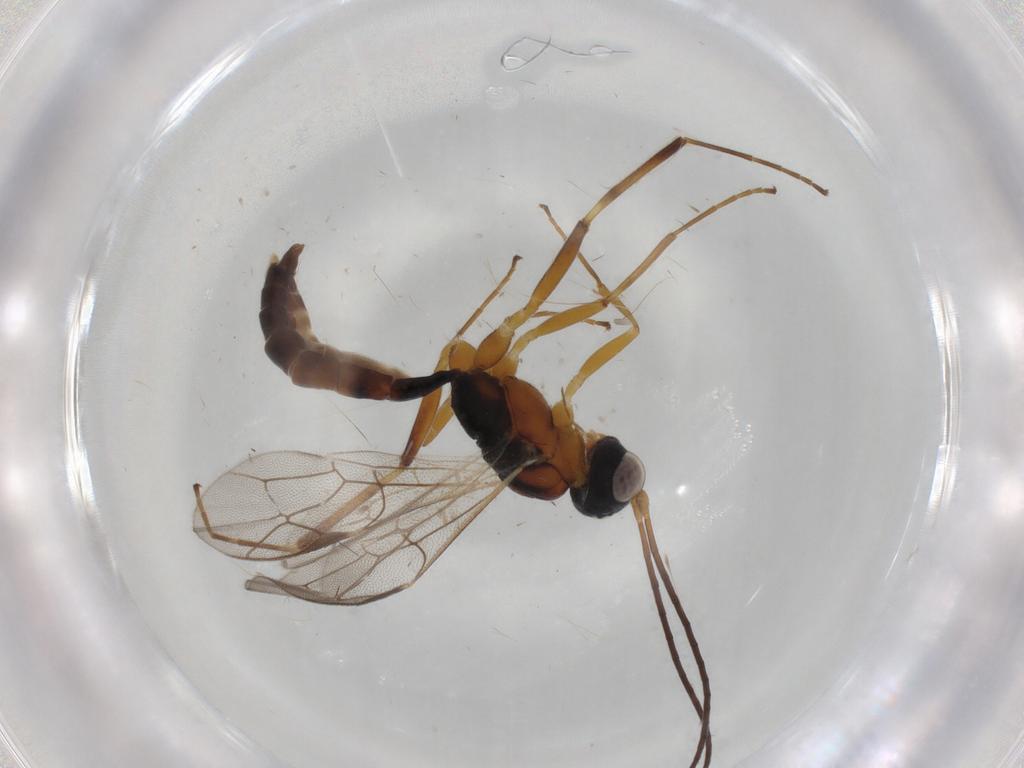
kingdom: Animalia
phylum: Arthropoda
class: Insecta
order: Hymenoptera
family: Ichneumonidae
